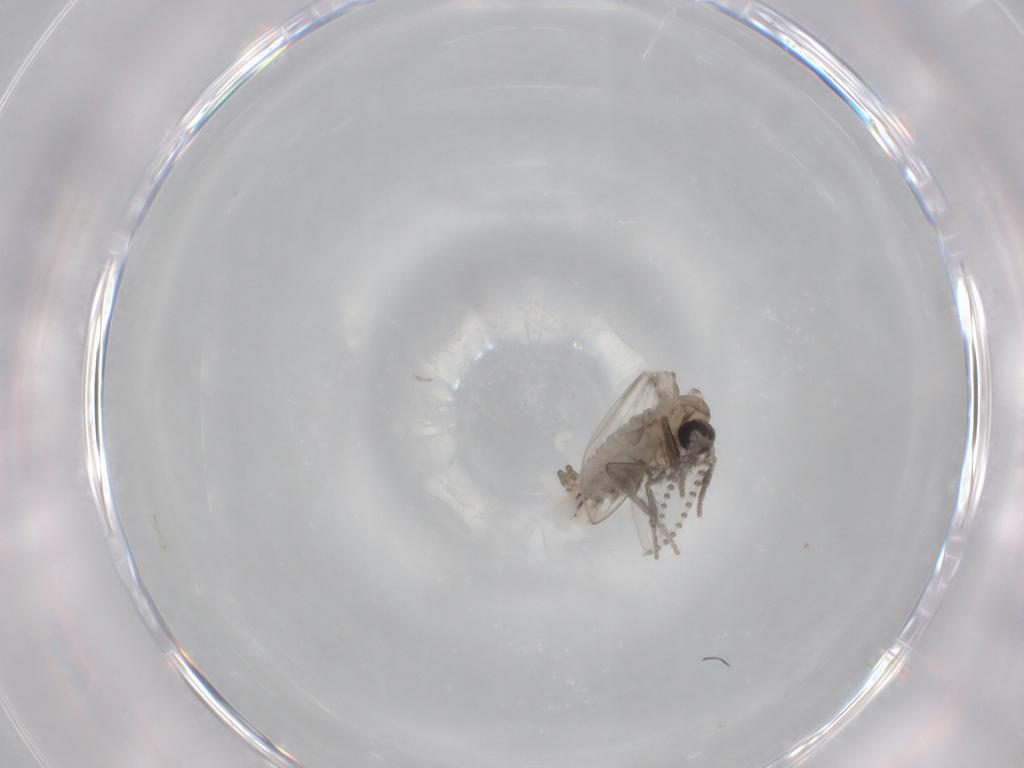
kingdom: Animalia
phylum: Arthropoda
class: Insecta
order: Diptera
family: Psychodidae
